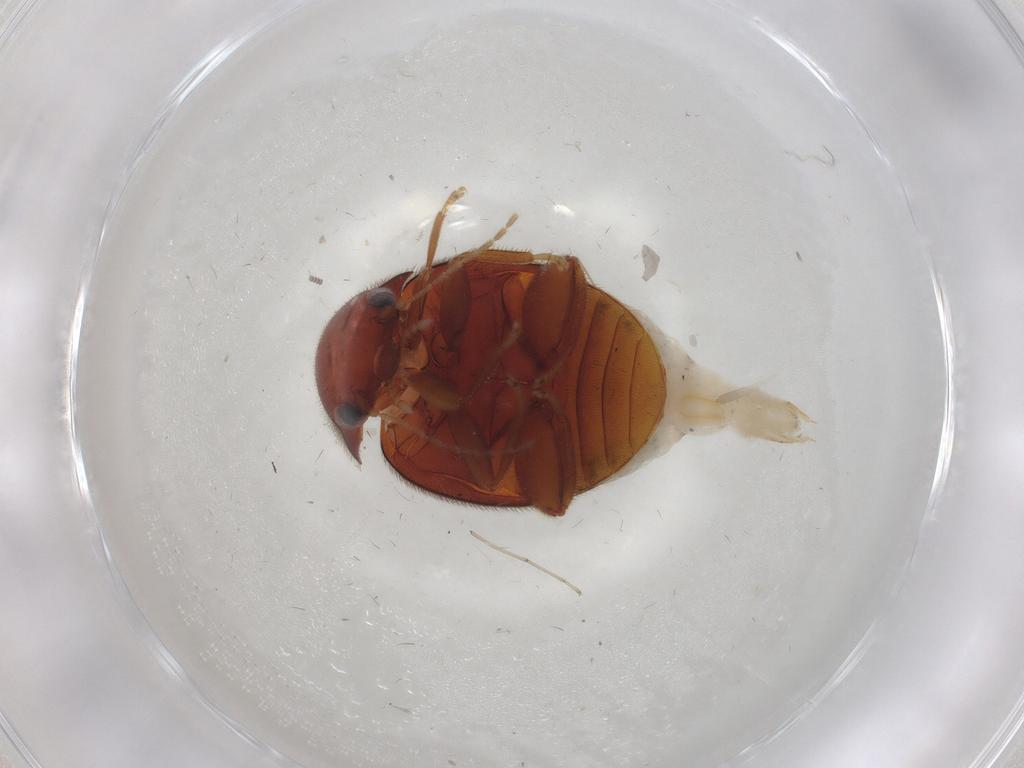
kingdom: Animalia
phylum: Arthropoda
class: Insecta
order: Coleoptera
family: Scirtidae
